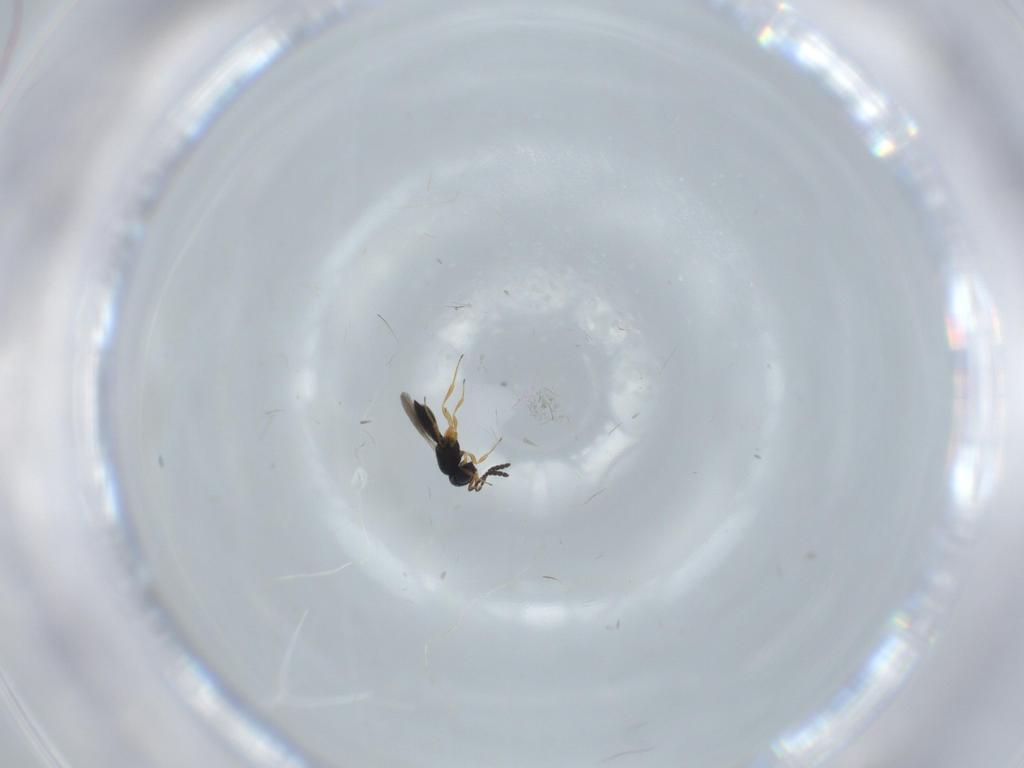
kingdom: Animalia
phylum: Arthropoda
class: Insecta
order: Hymenoptera
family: Scelionidae
